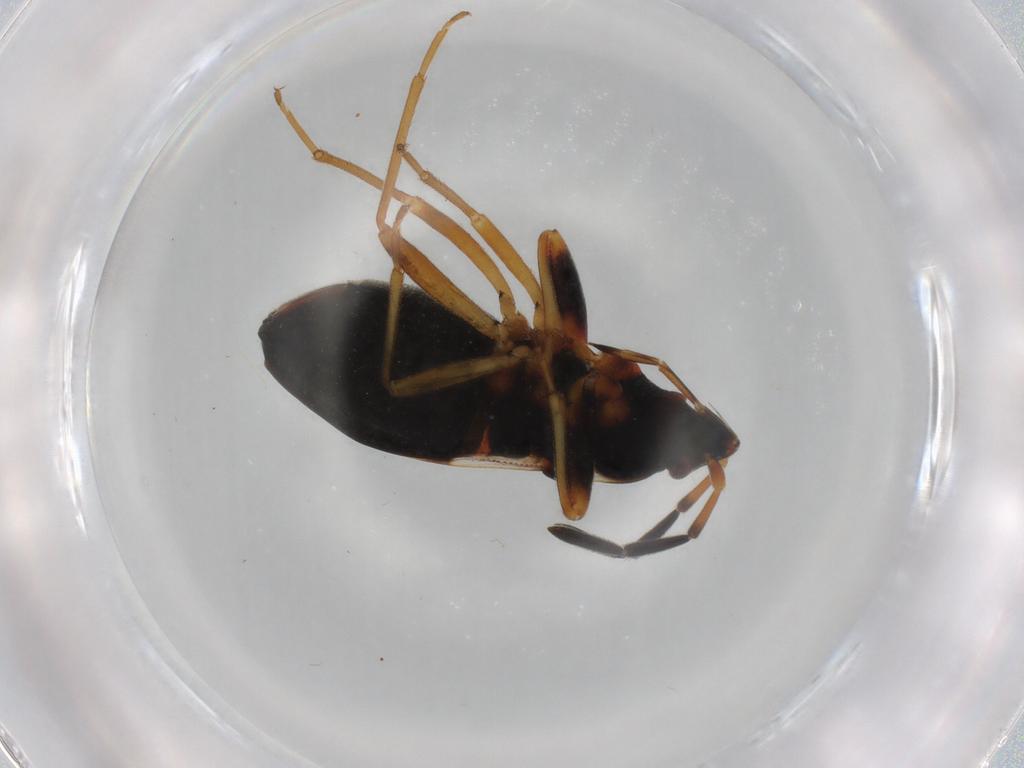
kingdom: Animalia
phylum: Arthropoda
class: Insecta
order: Hemiptera
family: Rhyparochromidae
